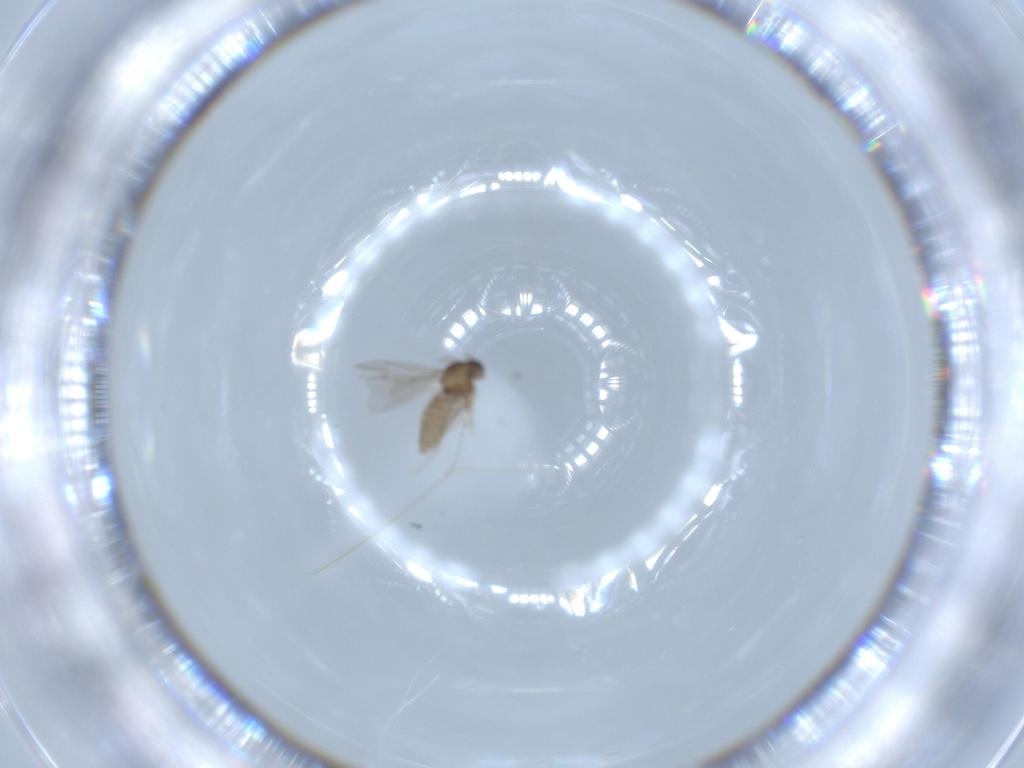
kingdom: Animalia
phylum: Arthropoda
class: Insecta
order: Diptera
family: Cecidomyiidae
